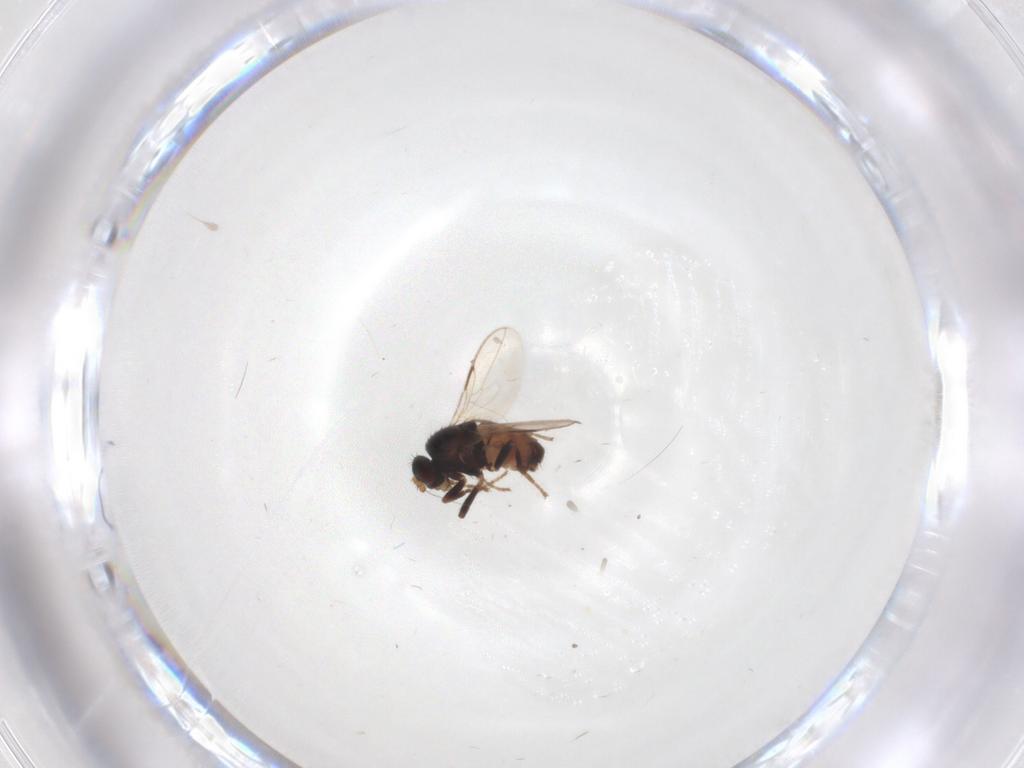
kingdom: Animalia
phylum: Arthropoda
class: Insecta
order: Diptera
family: Sphaeroceridae
